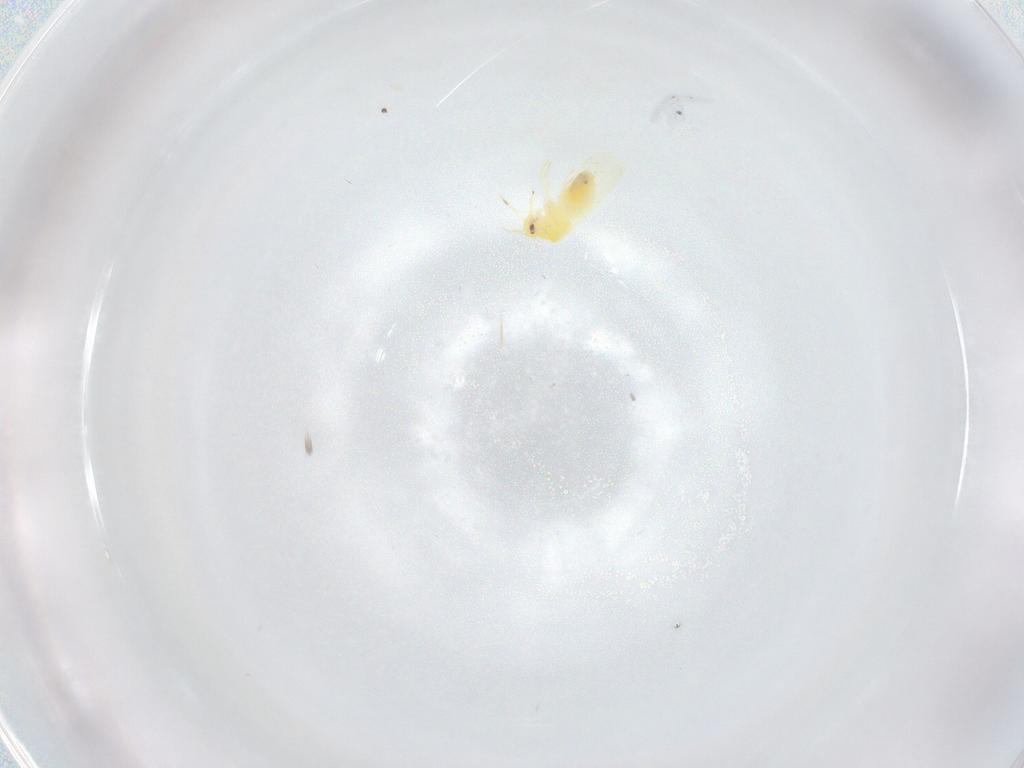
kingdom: Animalia
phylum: Arthropoda
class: Insecta
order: Hemiptera
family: Aleyrodidae
